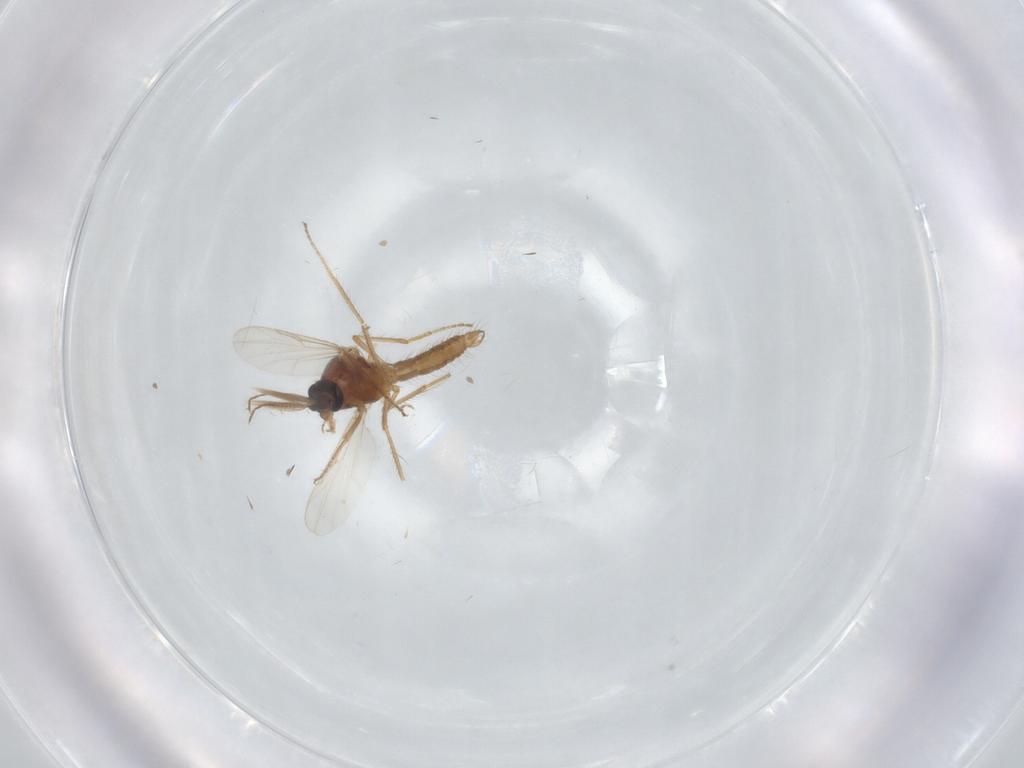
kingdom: Animalia
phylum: Arthropoda
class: Insecta
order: Diptera
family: Ceratopogonidae
